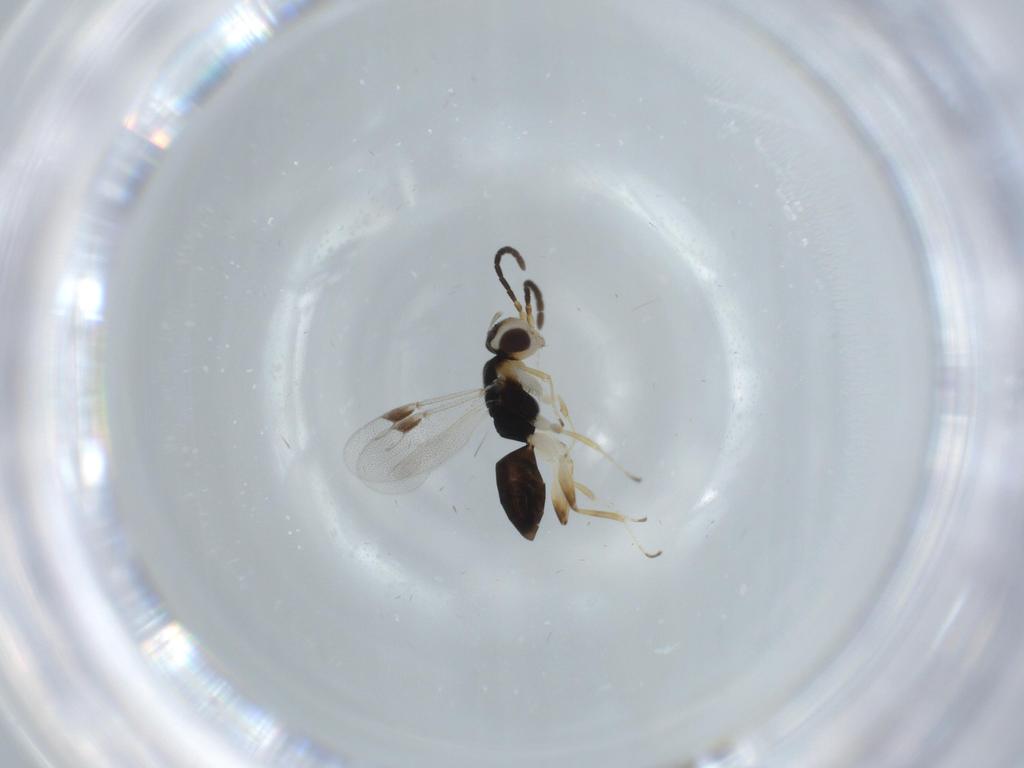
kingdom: Animalia
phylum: Arthropoda
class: Insecta
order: Hymenoptera
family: Dryinidae
